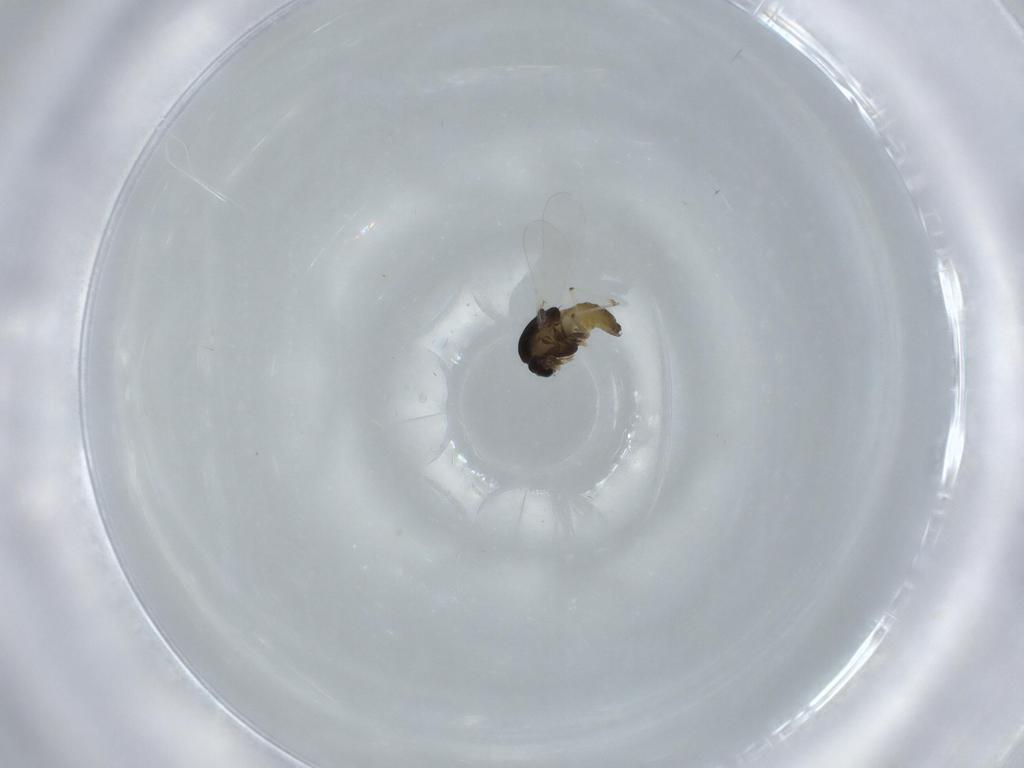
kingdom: Animalia
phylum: Arthropoda
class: Insecta
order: Diptera
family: Chironomidae
